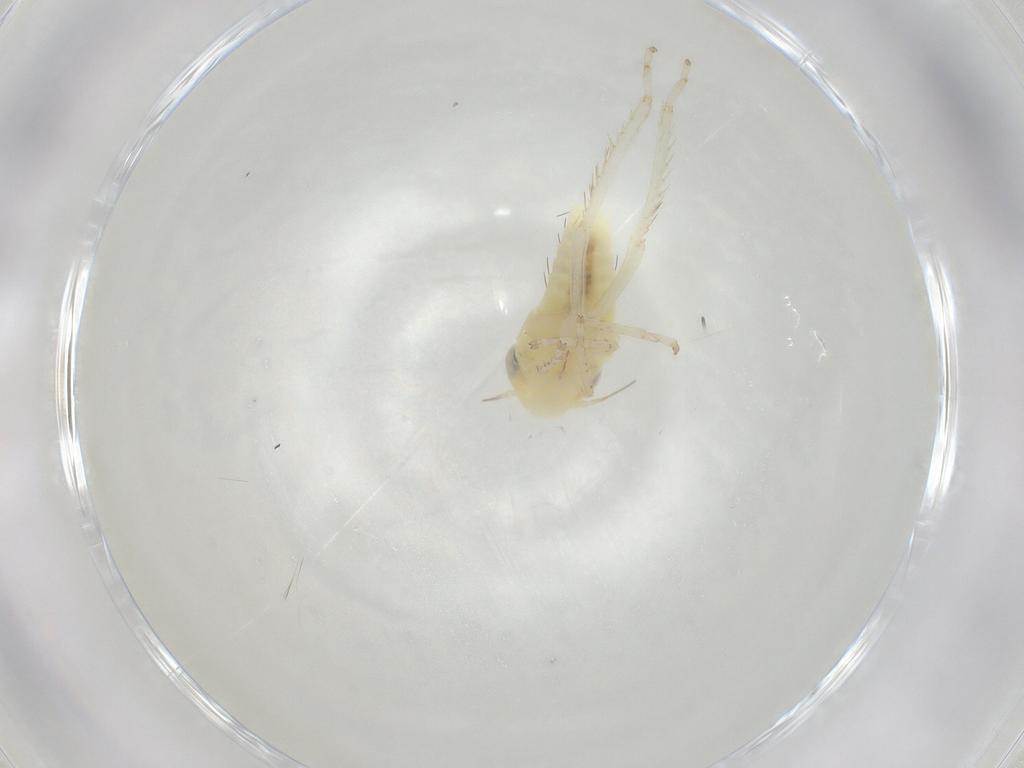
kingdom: Animalia
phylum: Arthropoda
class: Insecta
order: Hemiptera
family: Cicadellidae
